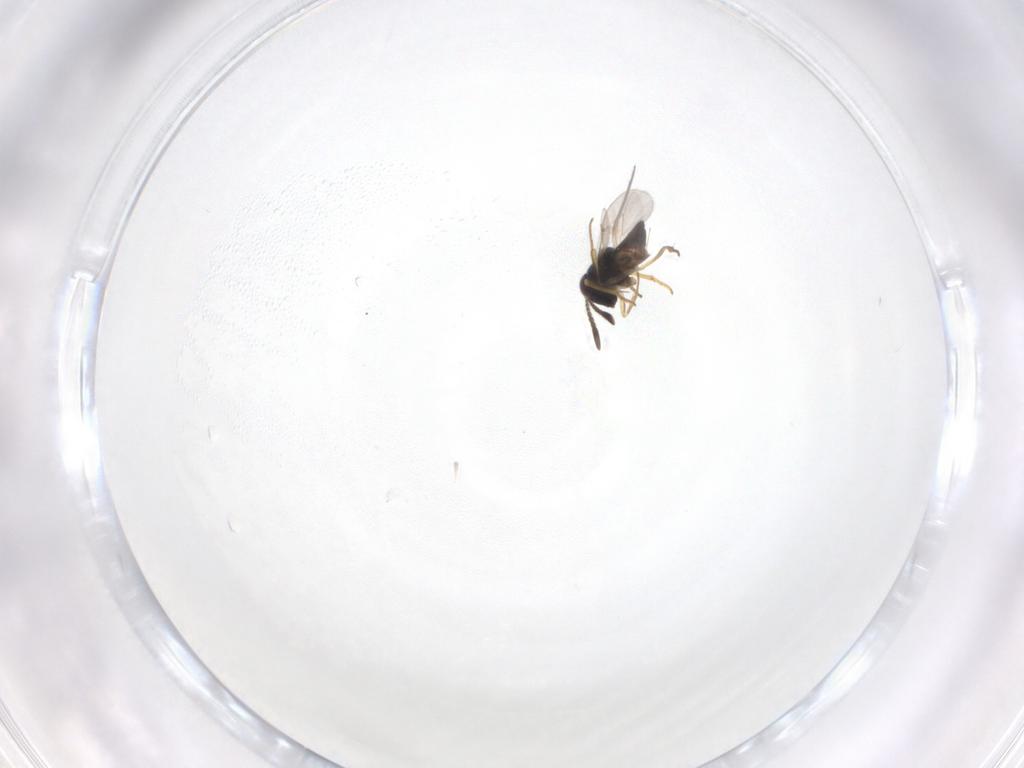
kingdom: Animalia
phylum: Arthropoda
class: Insecta
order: Hymenoptera
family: Encyrtidae
